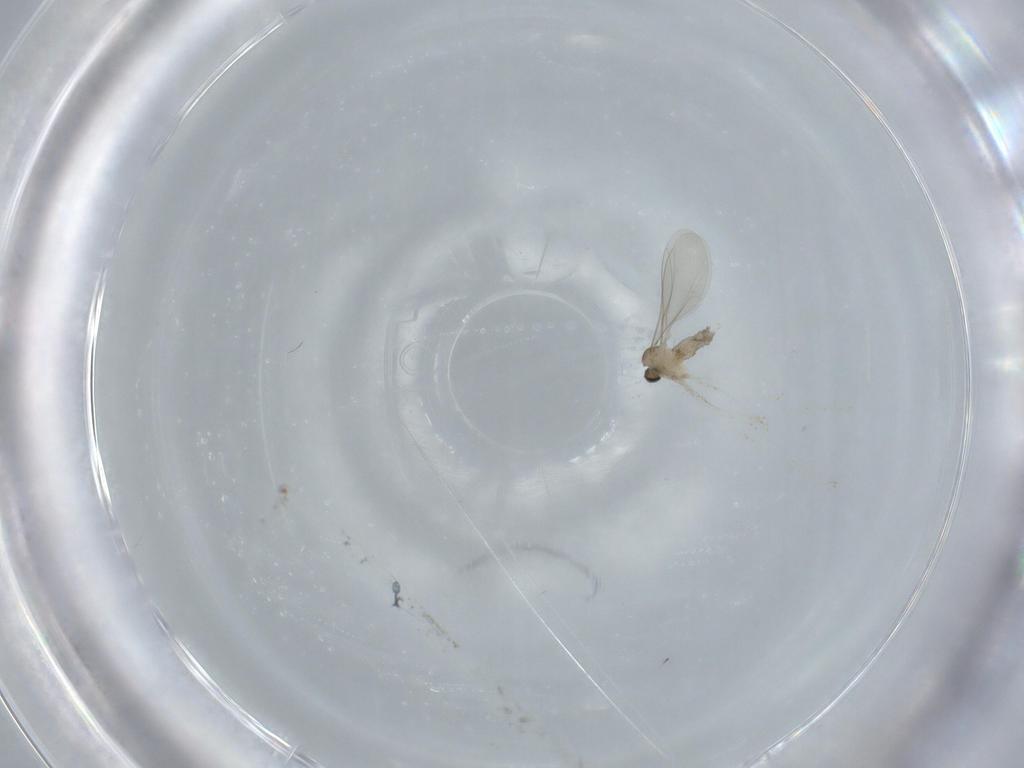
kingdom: Animalia
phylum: Arthropoda
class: Insecta
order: Diptera
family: Cecidomyiidae
